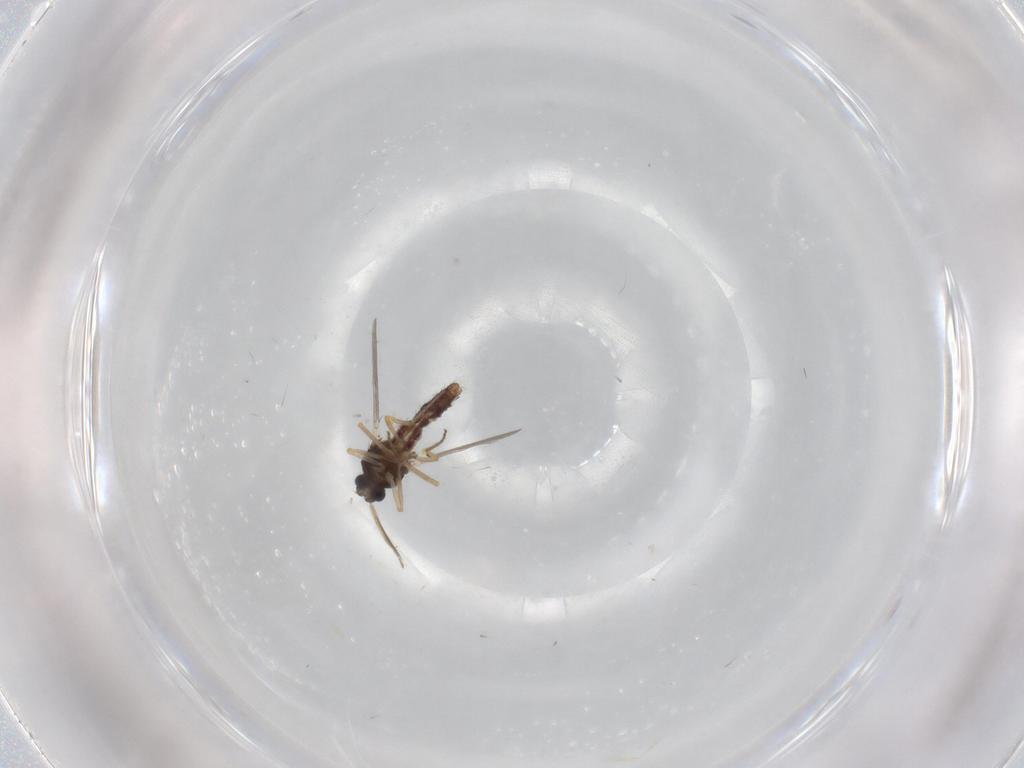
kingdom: Animalia
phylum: Arthropoda
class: Insecta
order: Diptera
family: Ceratopogonidae
